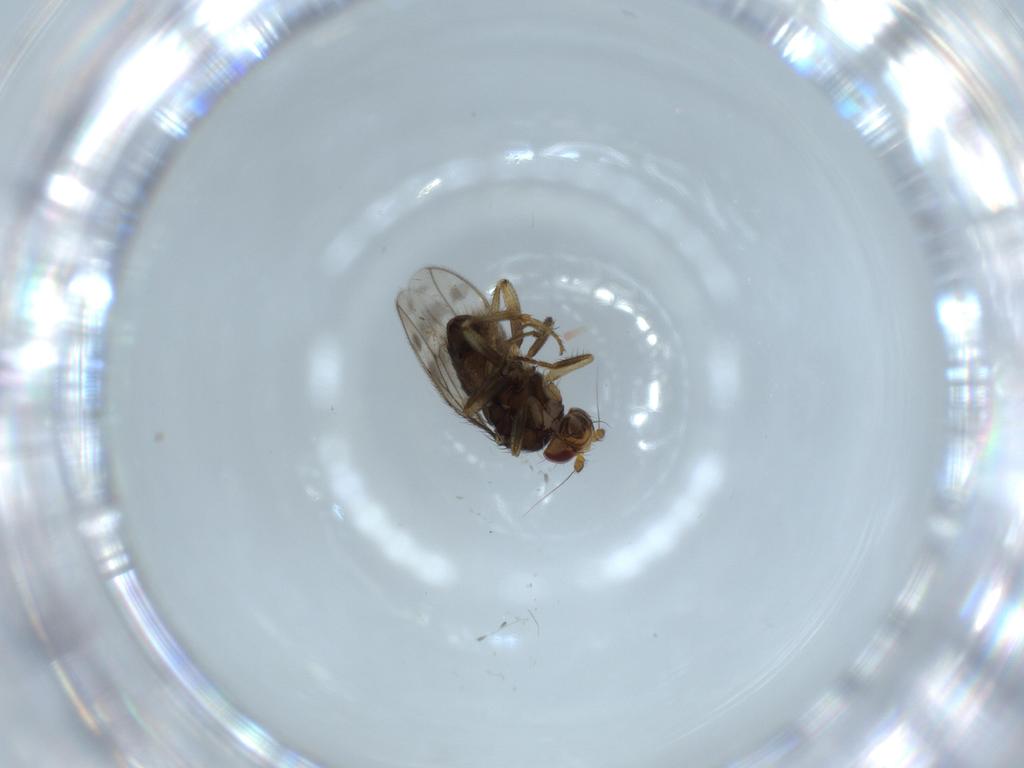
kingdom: Animalia
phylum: Arthropoda
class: Insecta
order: Diptera
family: Sphaeroceridae
